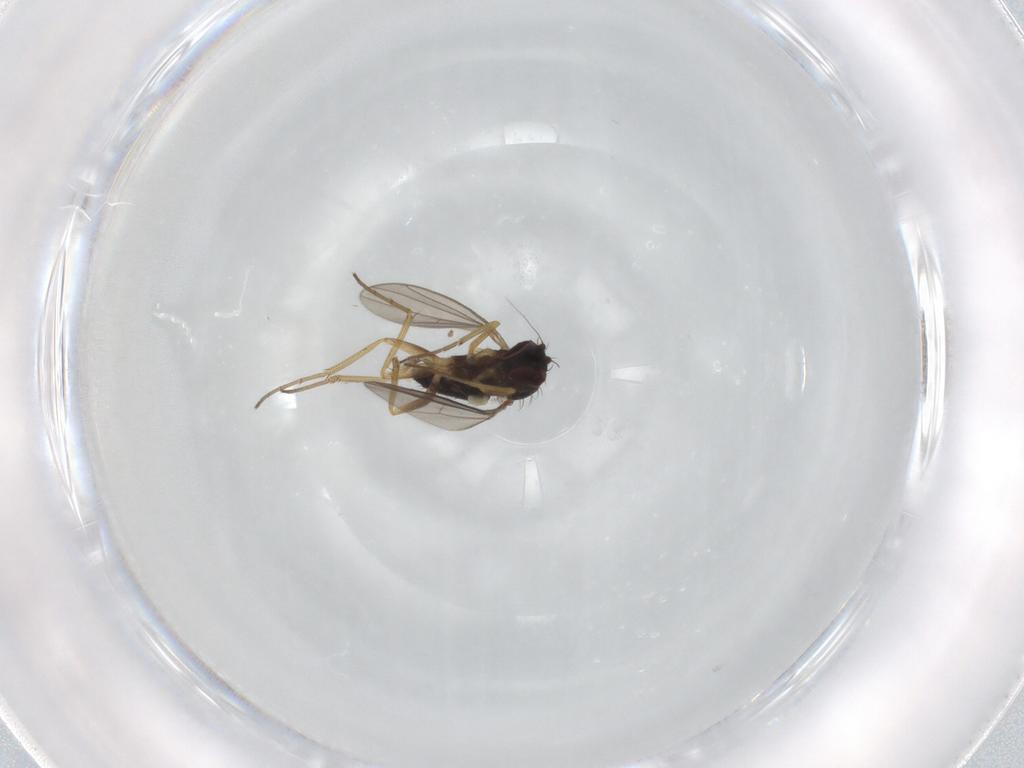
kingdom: Animalia
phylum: Arthropoda
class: Insecta
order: Diptera
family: Dolichopodidae
